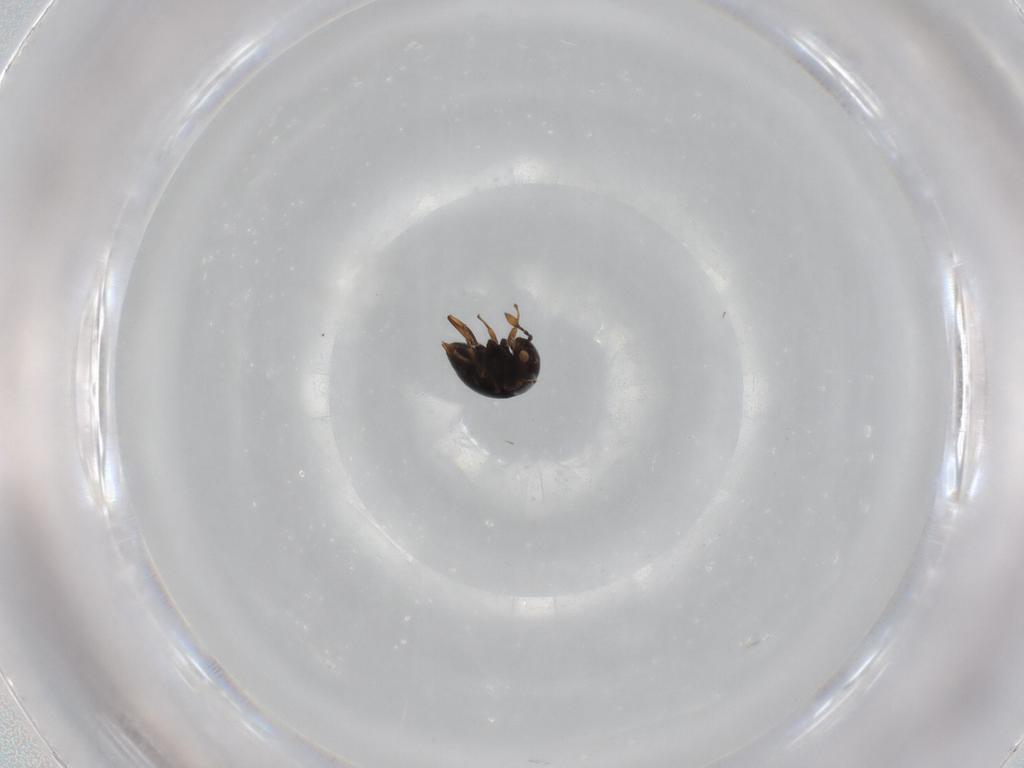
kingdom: Animalia
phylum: Arthropoda
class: Insecta
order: Hymenoptera
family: Scelionidae
